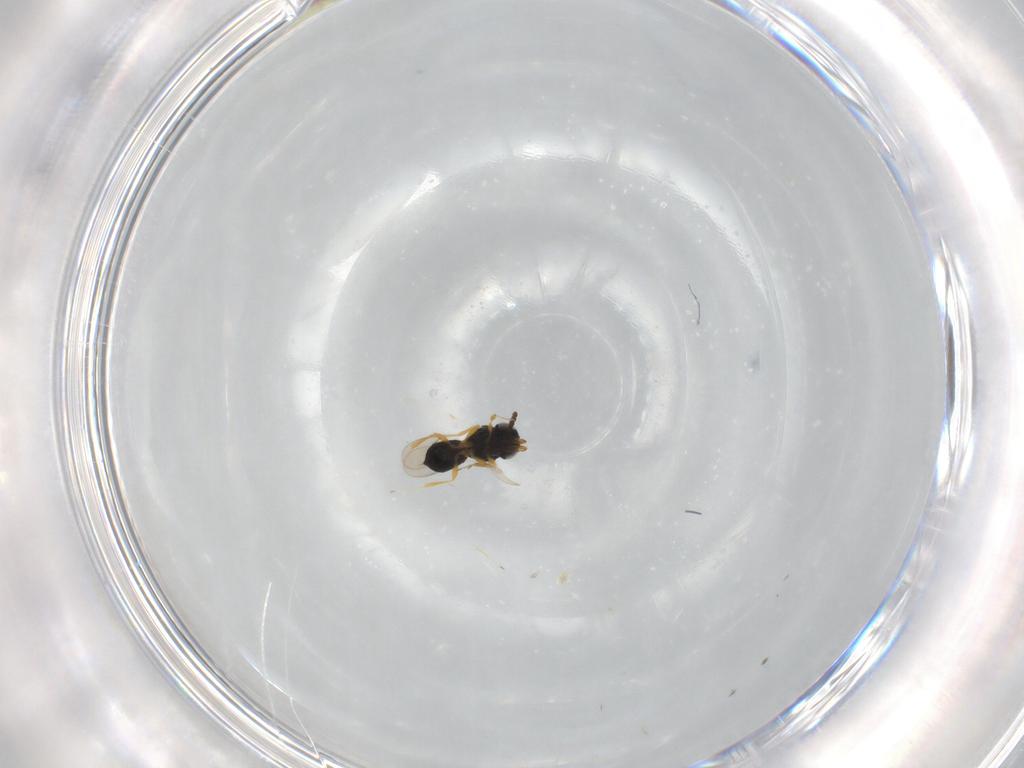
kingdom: Animalia
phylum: Arthropoda
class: Insecta
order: Hymenoptera
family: Scelionidae
